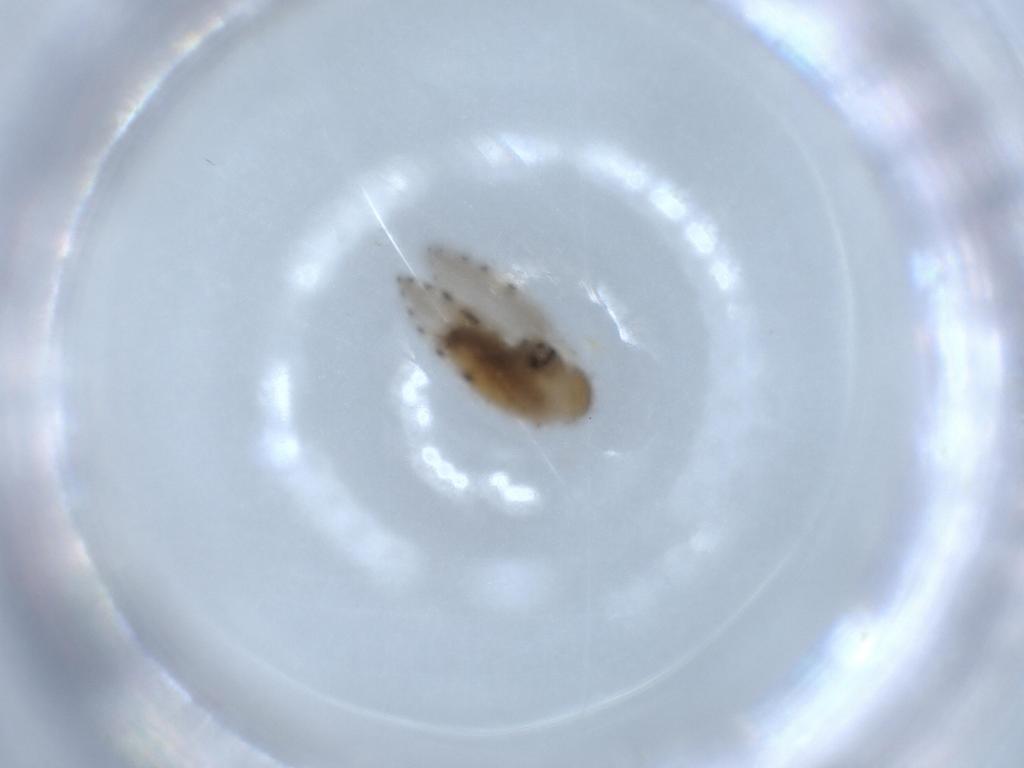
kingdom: Animalia
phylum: Arthropoda
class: Insecta
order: Diptera
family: Psychodidae
